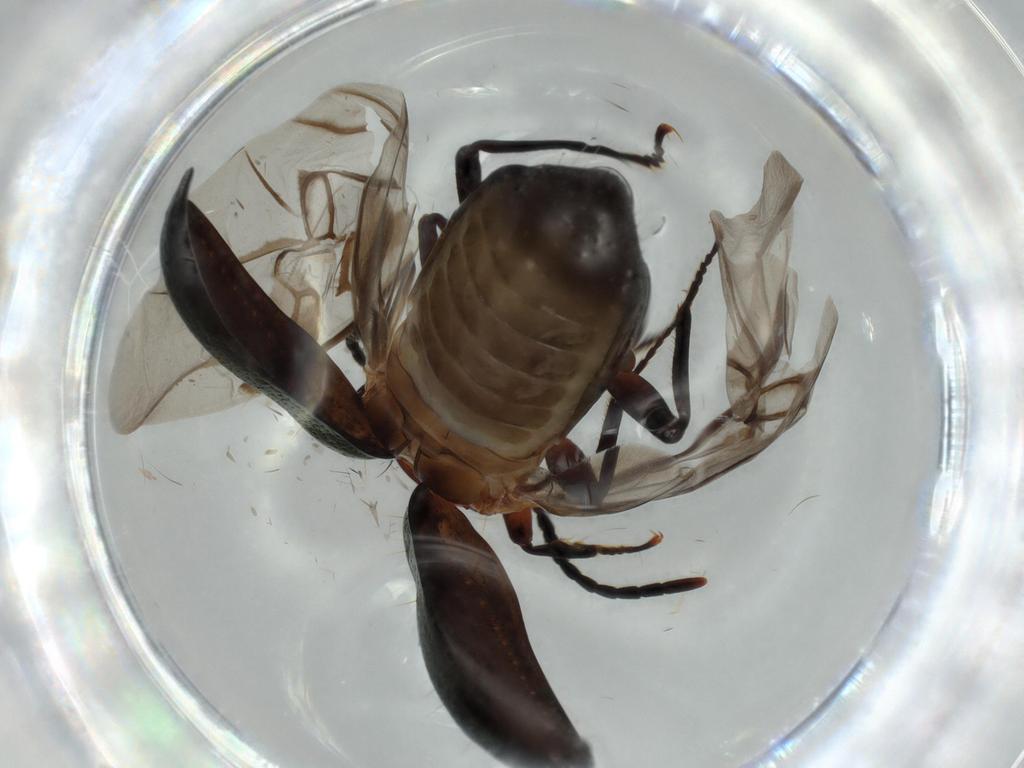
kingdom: Animalia
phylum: Arthropoda
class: Insecta
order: Coleoptera
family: Carabidae
